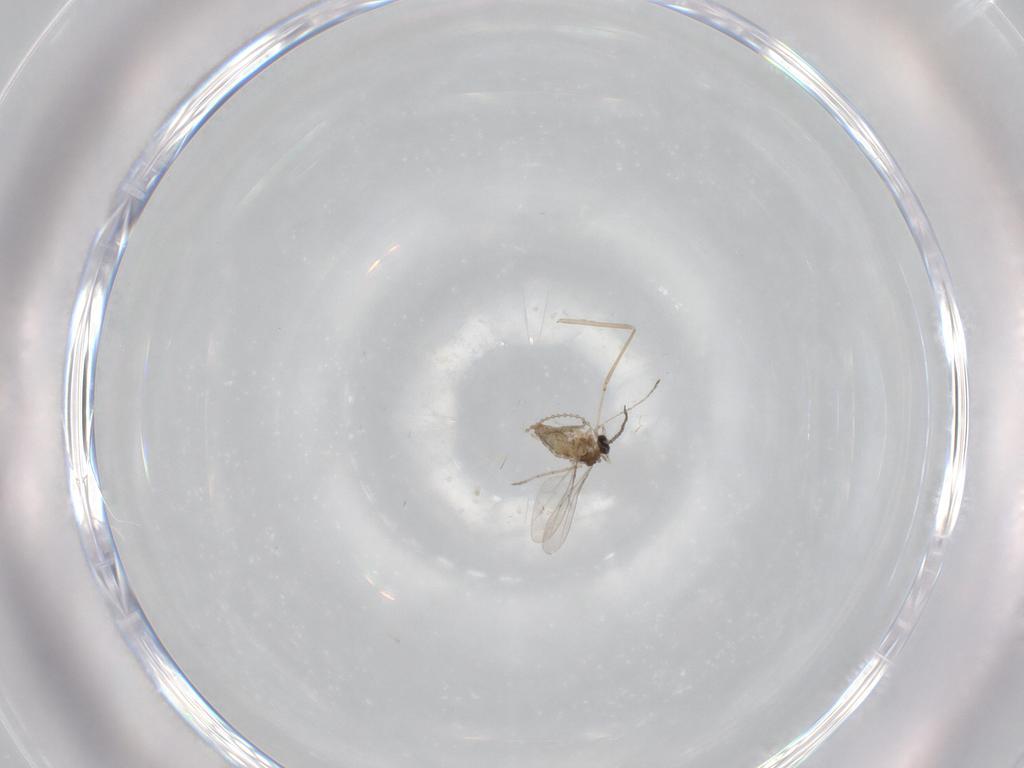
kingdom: Animalia
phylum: Arthropoda
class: Insecta
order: Diptera
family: Cecidomyiidae
